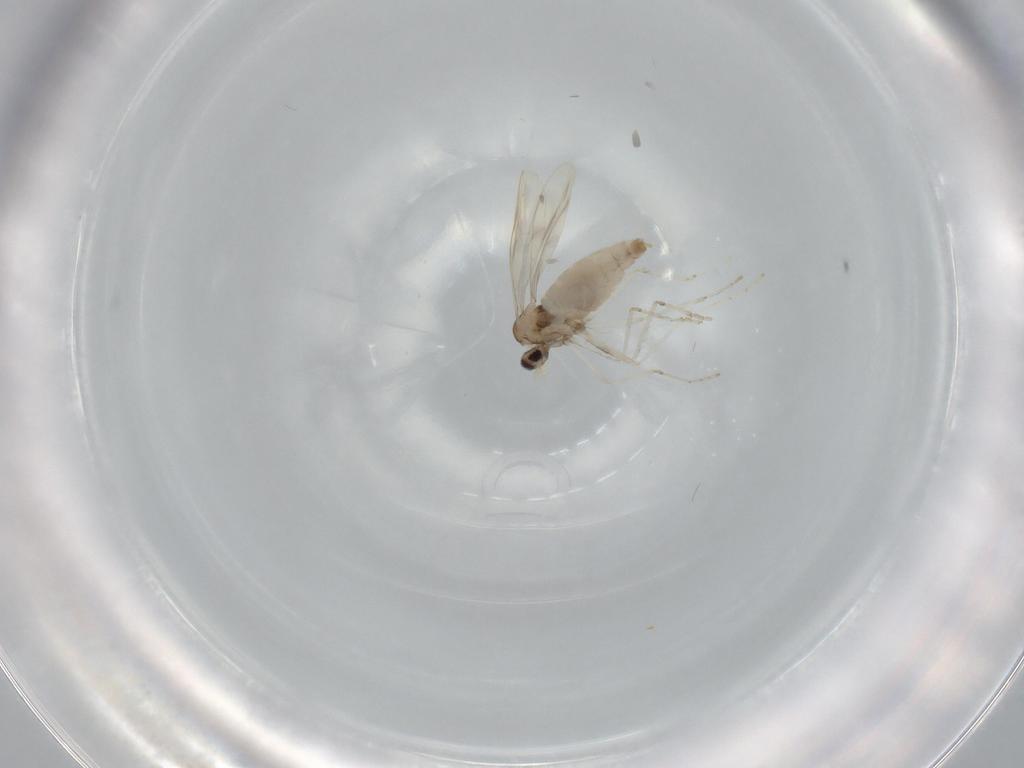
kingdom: Animalia
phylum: Arthropoda
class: Insecta
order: Diptera
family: Cecidomyiidae
